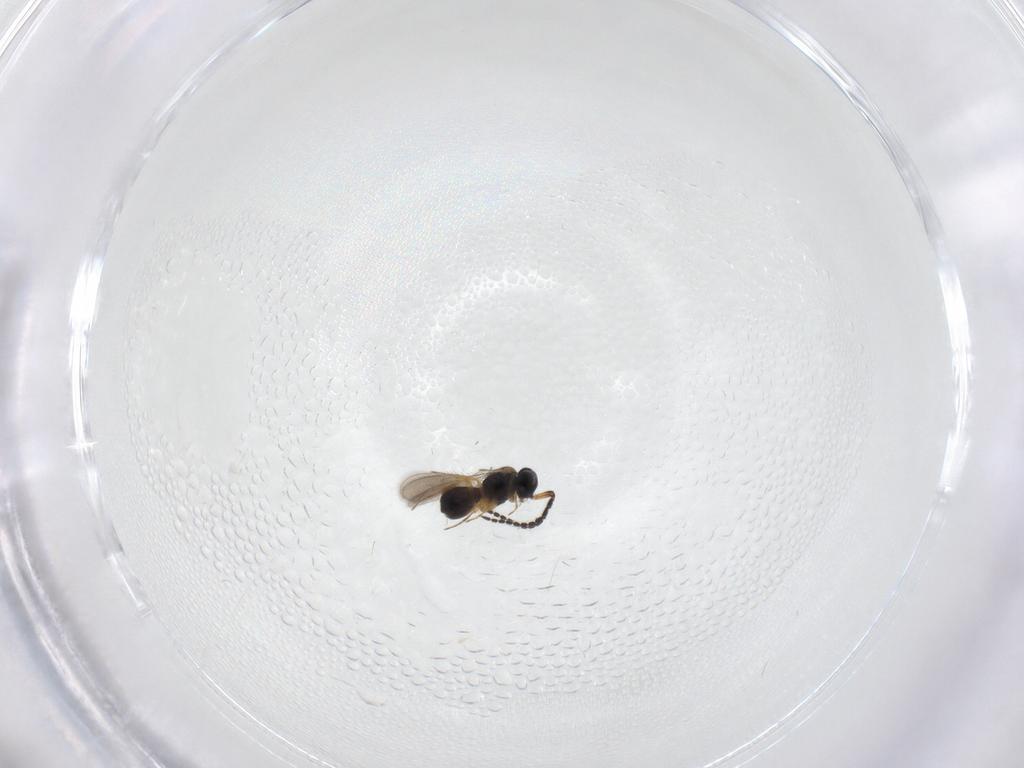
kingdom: Animalia
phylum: Arthropoda
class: Insecta
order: Hymenoptera
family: Scelionidae
